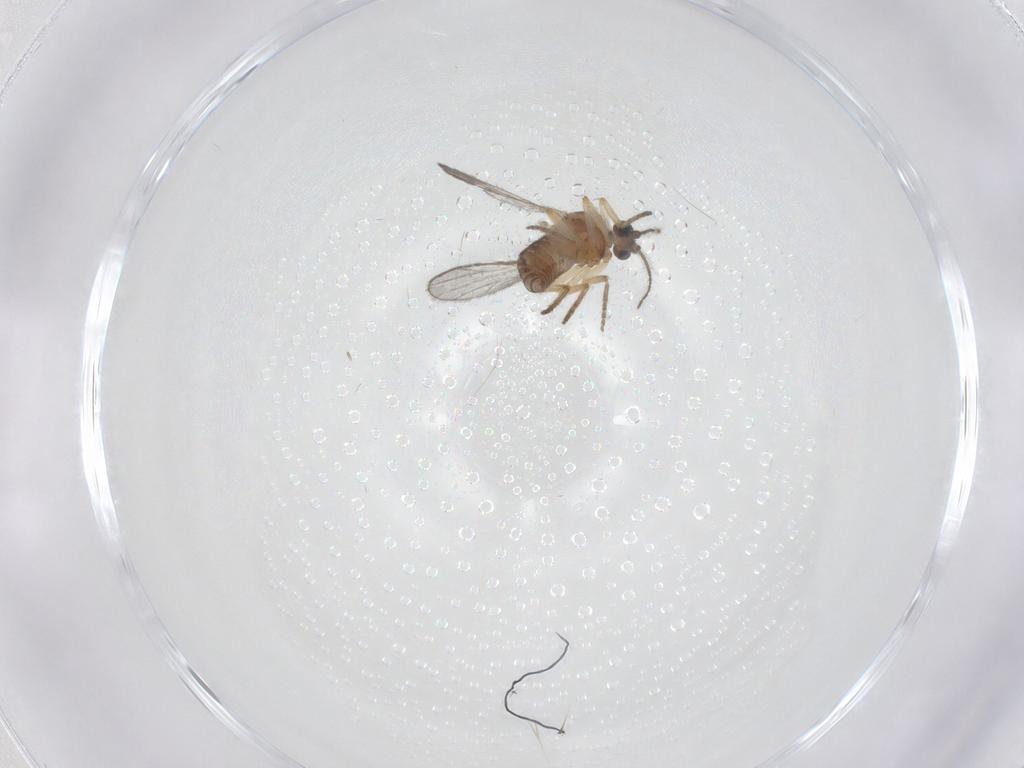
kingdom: Animalia
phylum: Arthropoda
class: Insecta
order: Diptera
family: Ceratopogonidae
